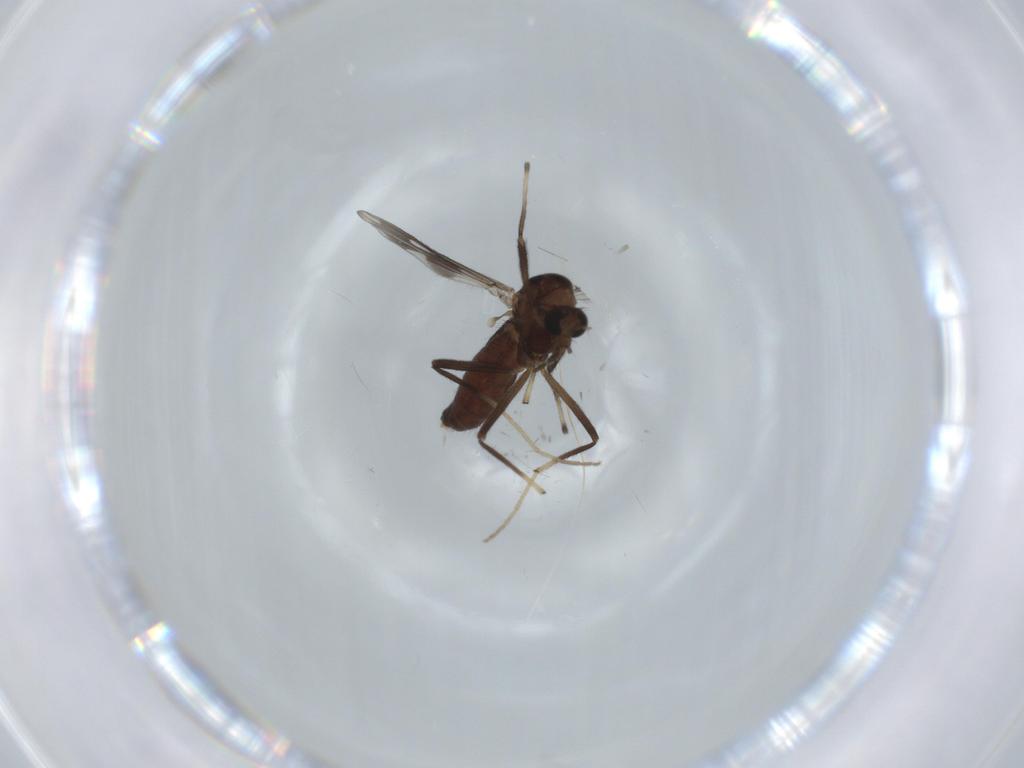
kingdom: Animalia
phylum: Arthropoda
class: Insecta
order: Diptera
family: Chironomidae
